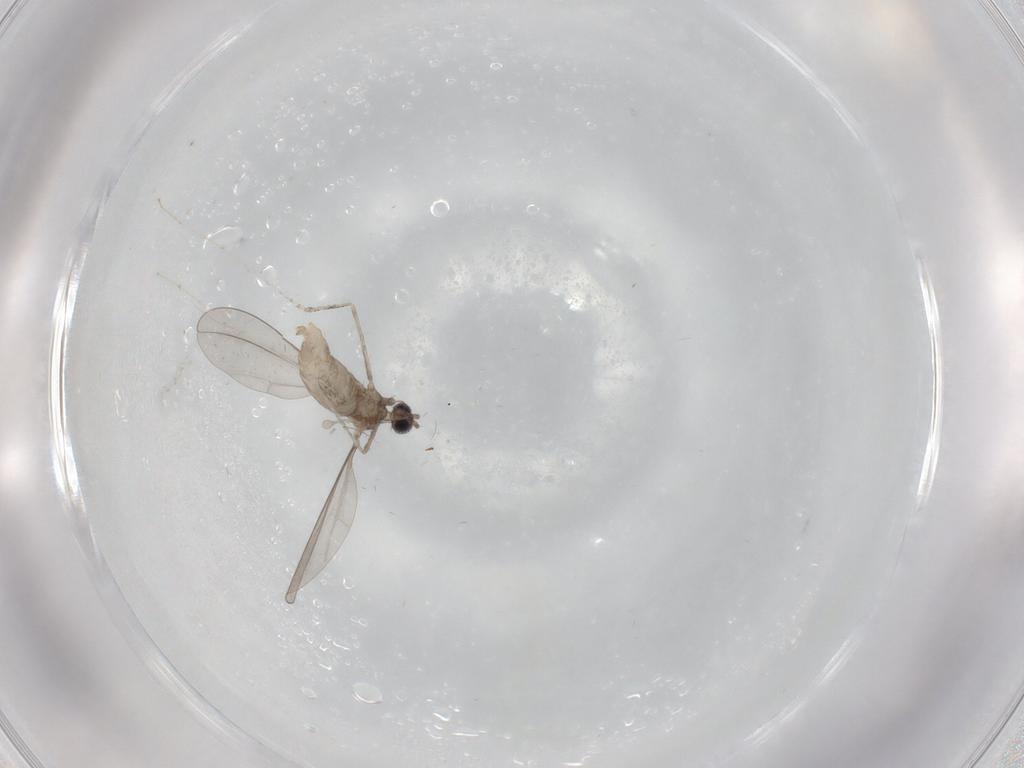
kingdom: Animalia
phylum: Arthropoda
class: Insecta
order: Diptera
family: Cecidomyiidae
